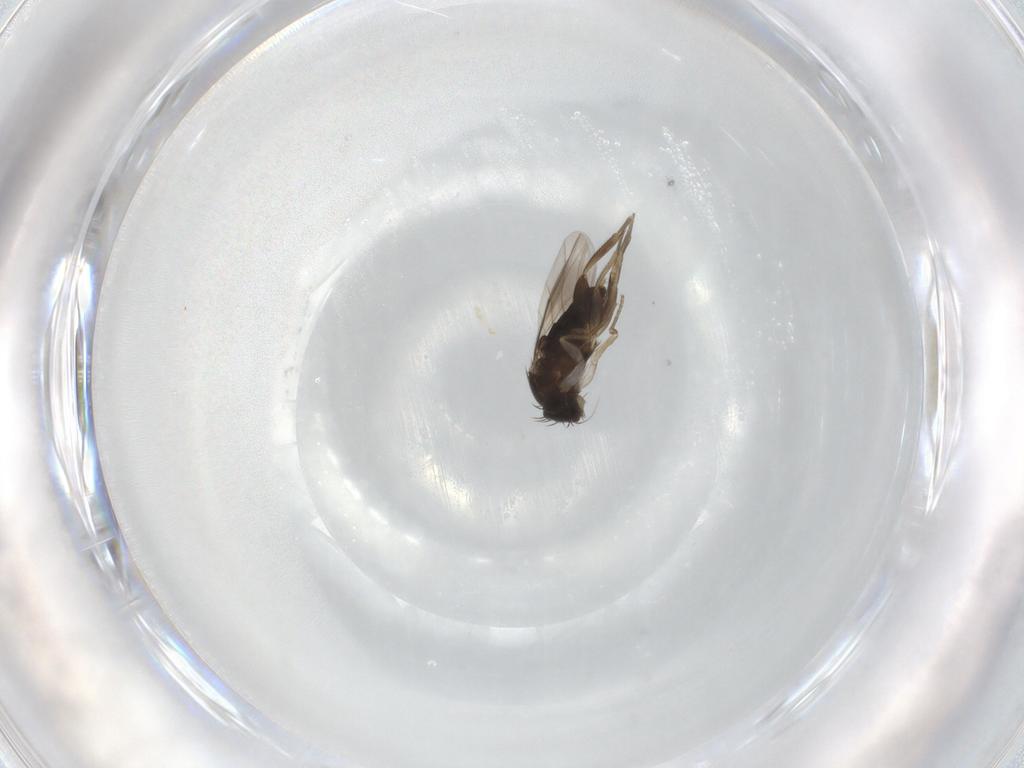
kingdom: Animalia
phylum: Arthropoda
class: Insecta
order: Diptera
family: Phoridae
